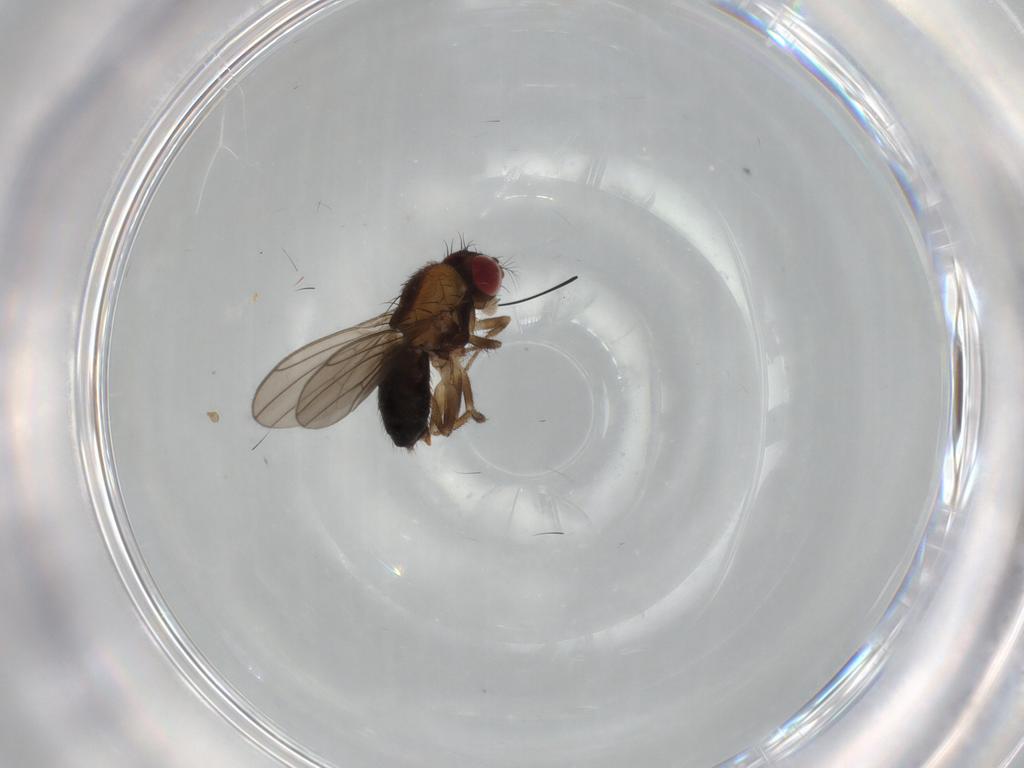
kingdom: Animalia
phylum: Arthropoda
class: Insecta
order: Diptera
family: Drosophilidae
